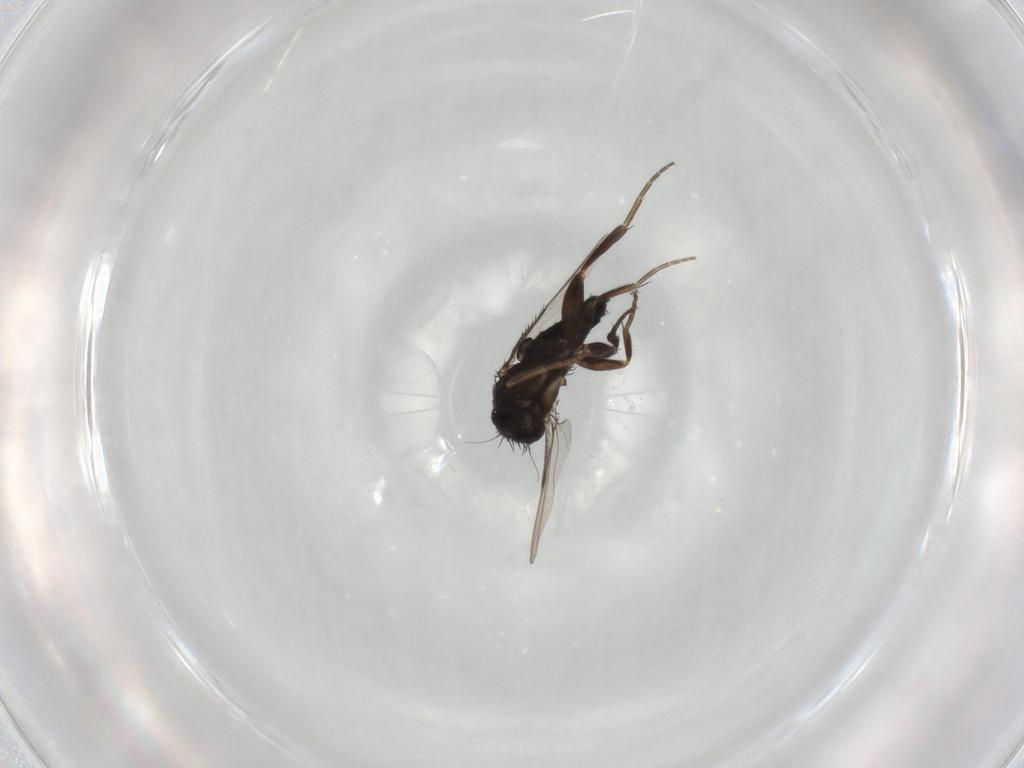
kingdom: Animalia
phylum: Arthropoda
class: Insecta
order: Diptera
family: Phoridae
